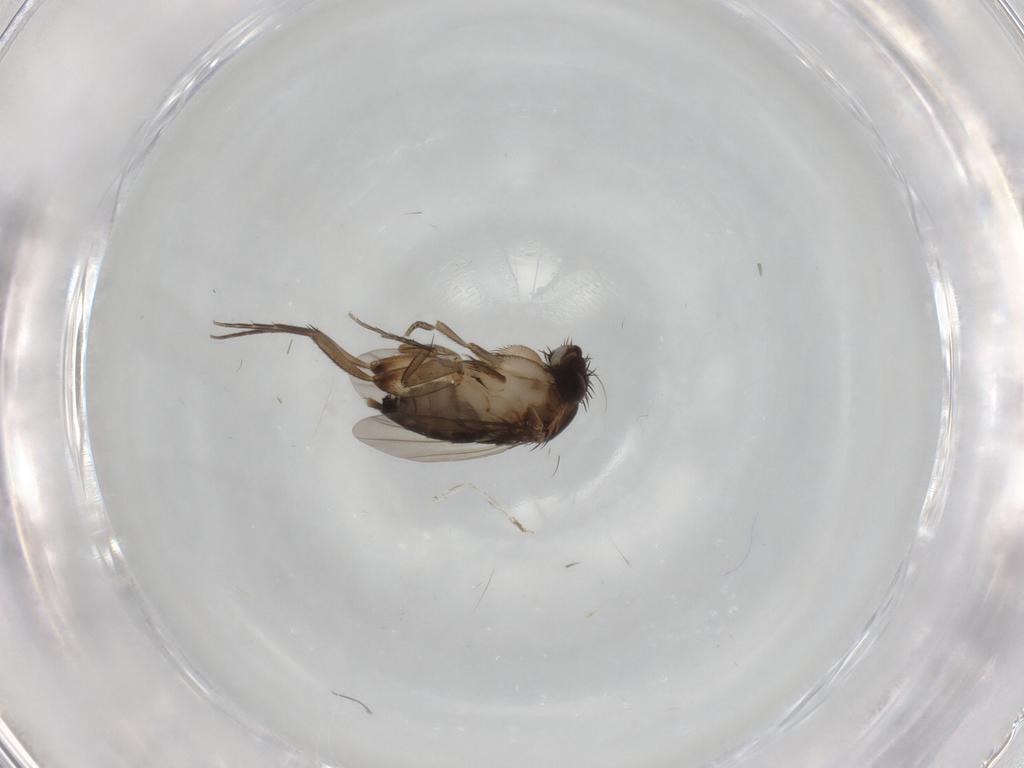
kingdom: Animalia
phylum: Arthropoda
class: Insecta
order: Diptera
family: Phoridae
